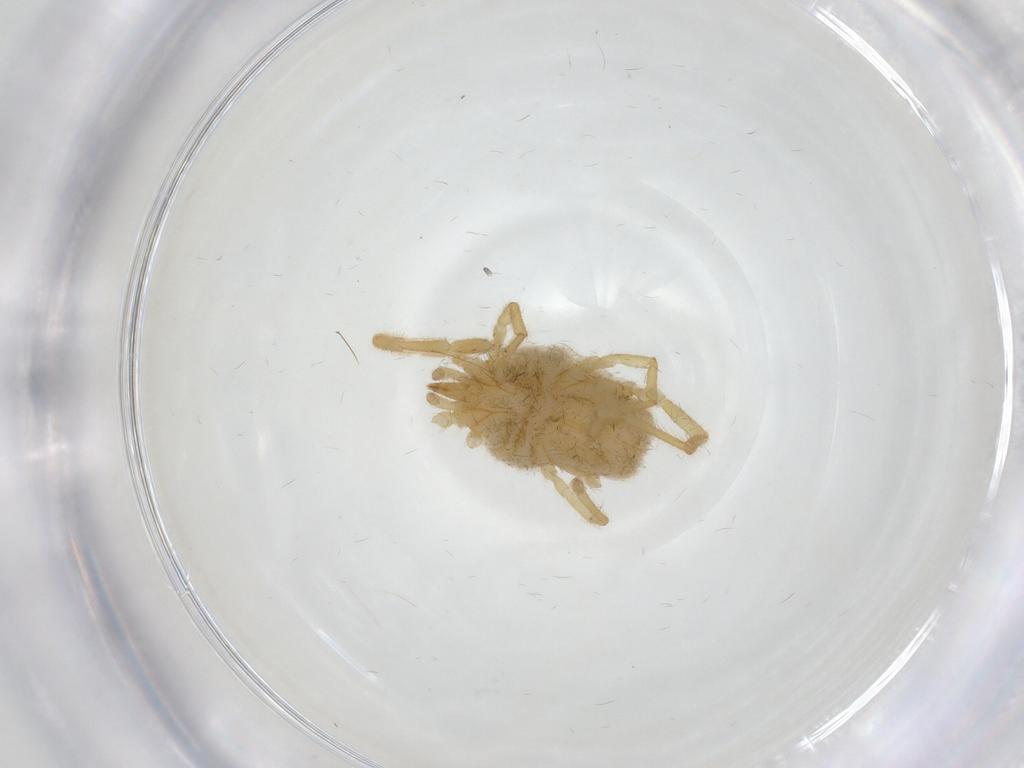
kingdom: Animalia
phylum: Arthropoda
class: Arachnida
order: Trombidiformes
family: Erythraeidae
